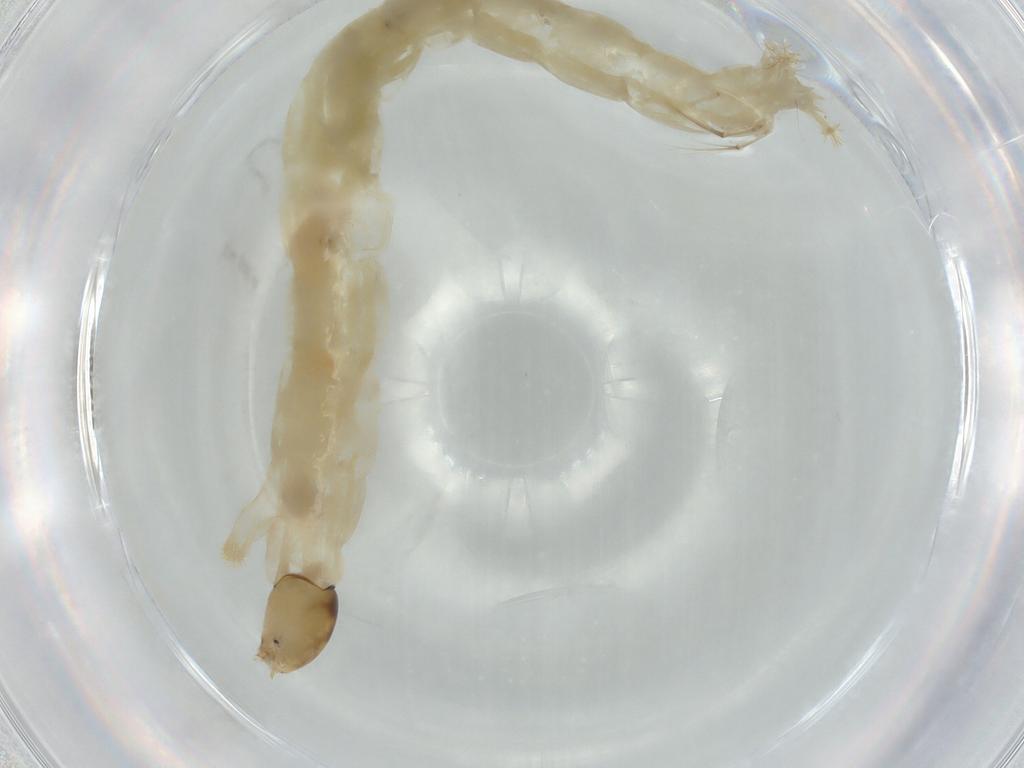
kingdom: Animalia
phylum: Arthropoda
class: Insecta
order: Diptera
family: Chironomidae
